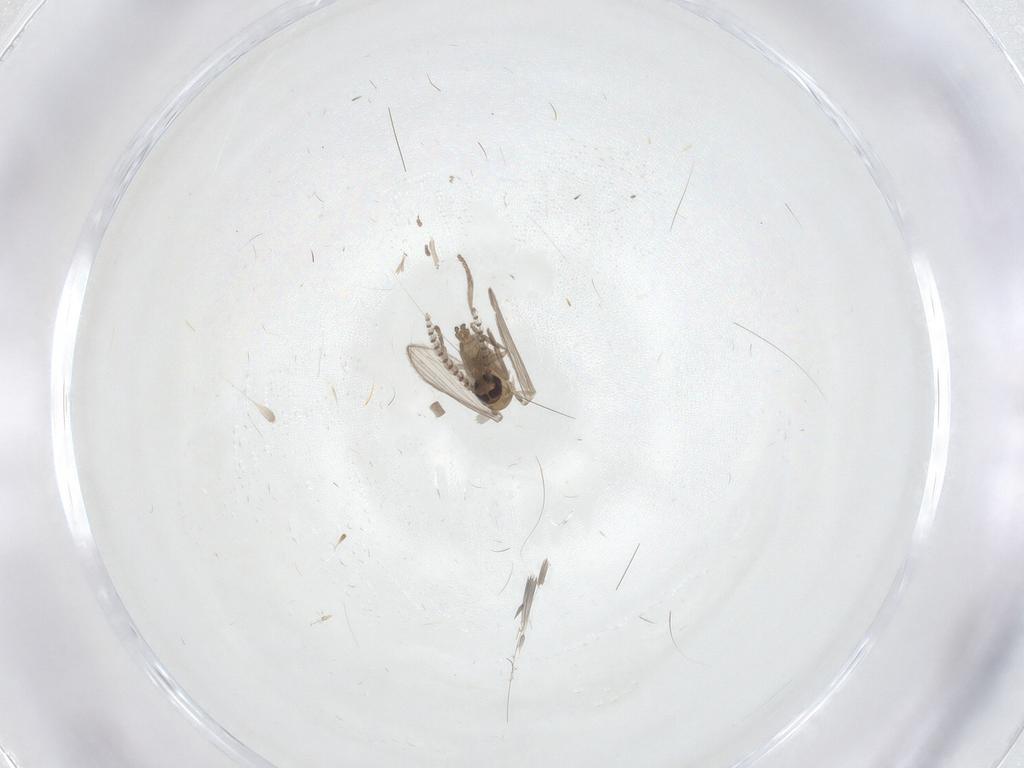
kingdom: Animalia
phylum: Arthropoda
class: Insecta
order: Diptera
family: Psychodidae
